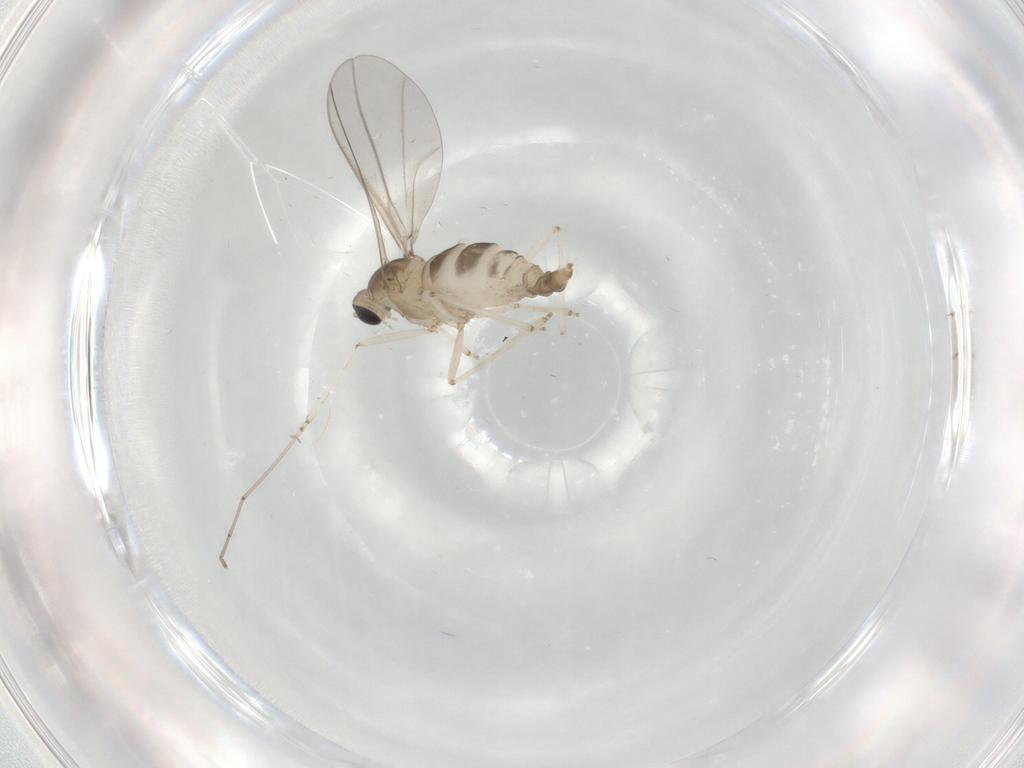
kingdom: Animalia
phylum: Arthropoda
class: Insecta
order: Diptera
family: Cecidomyiidae
